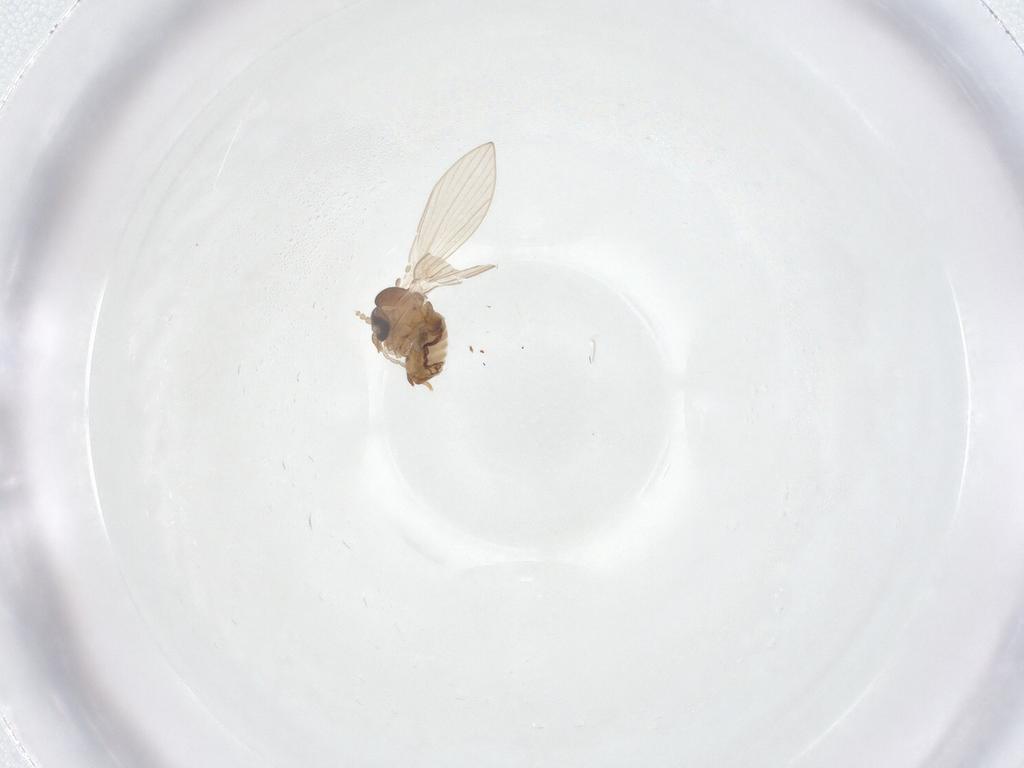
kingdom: Animalia
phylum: Arthropoda
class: Insecta
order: Diptera
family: Psychodidae
